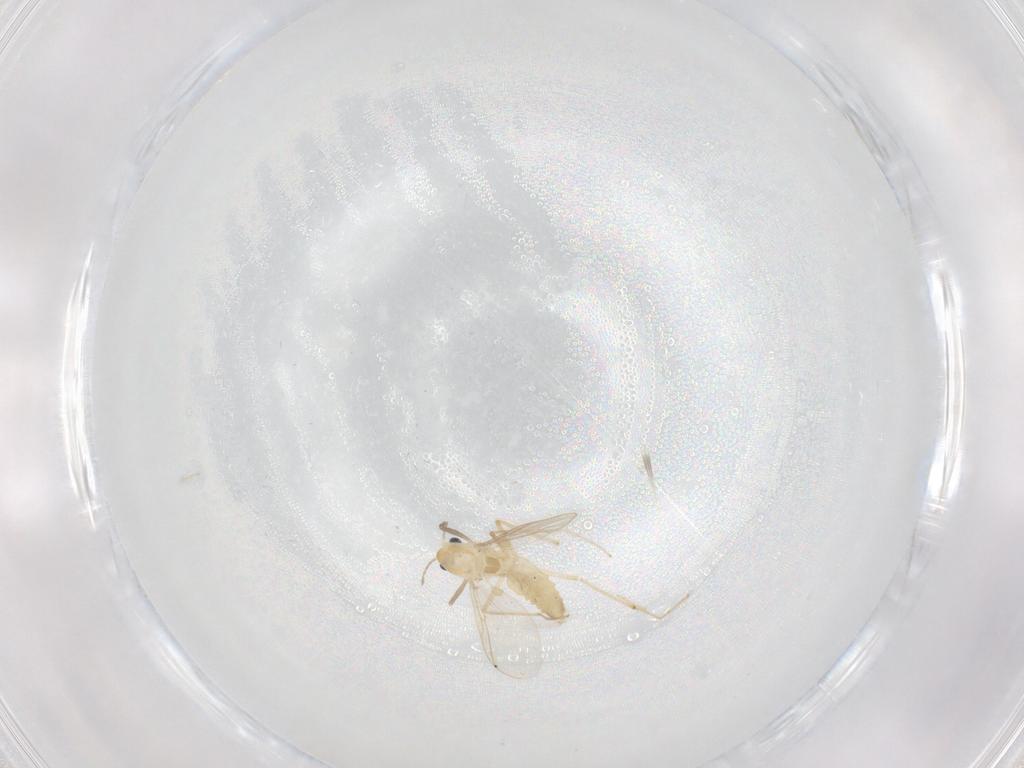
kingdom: Animalia
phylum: Arthropoda
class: Insecta
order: Diptera
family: Chironomidae
